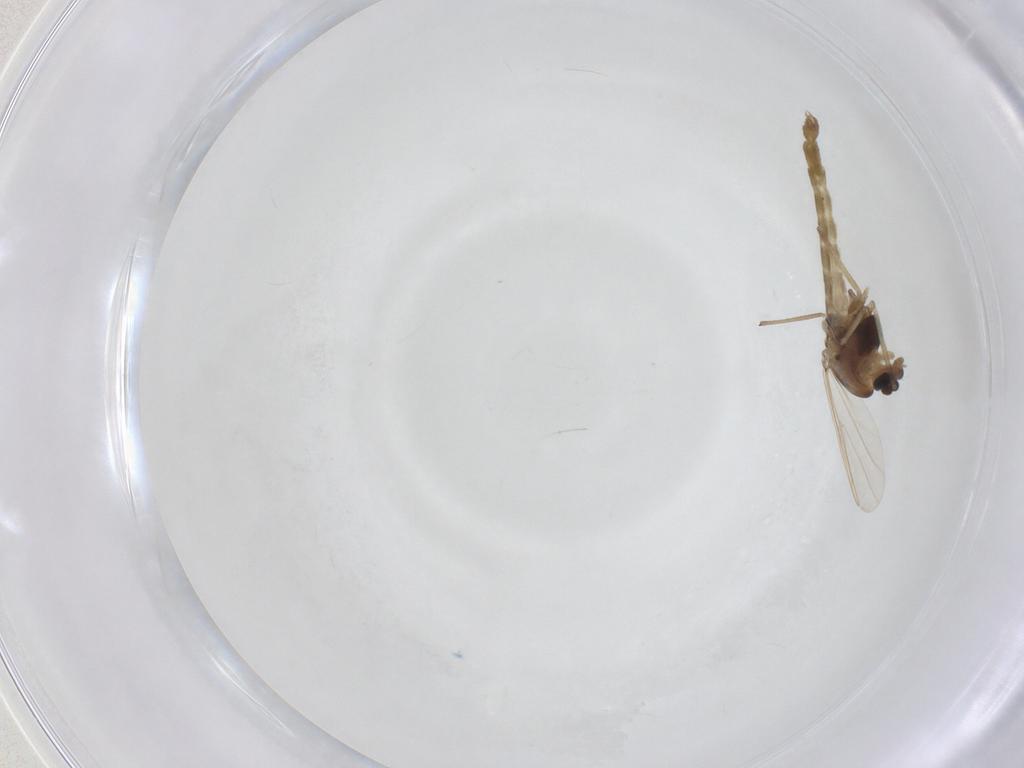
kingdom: Animalia
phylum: Arthropoda
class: Insecta
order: Diptera
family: Chironomidae
